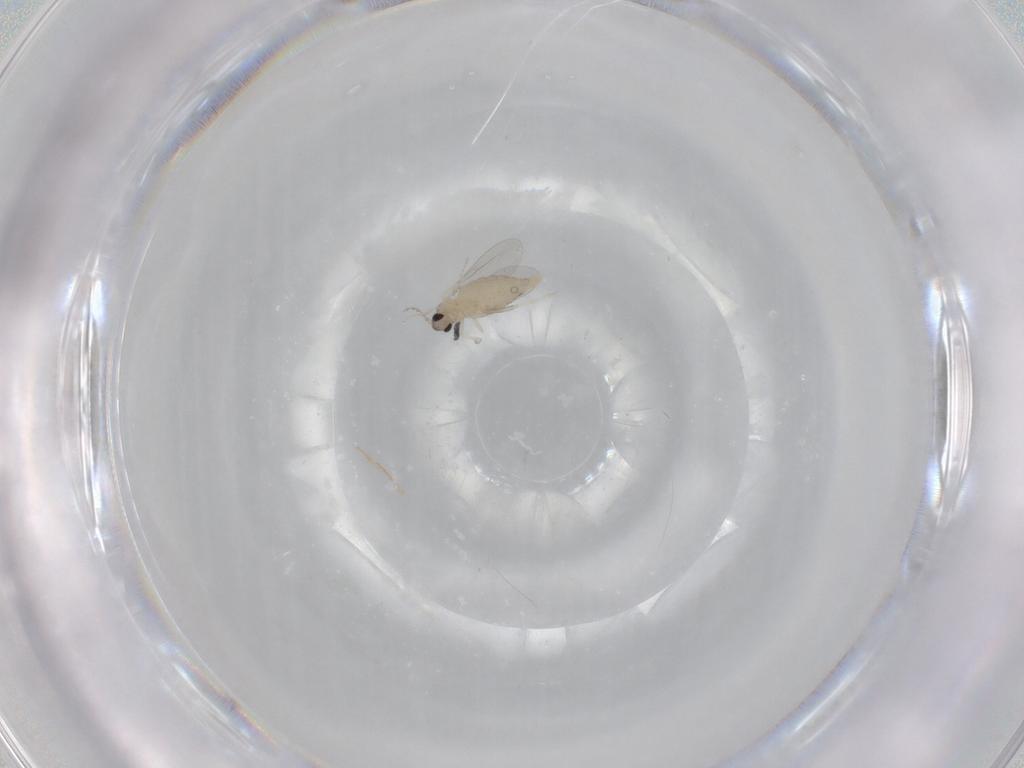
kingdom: Animalia
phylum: Arthropoda
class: Insecta
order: Diptera
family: Cecidomyiidae
